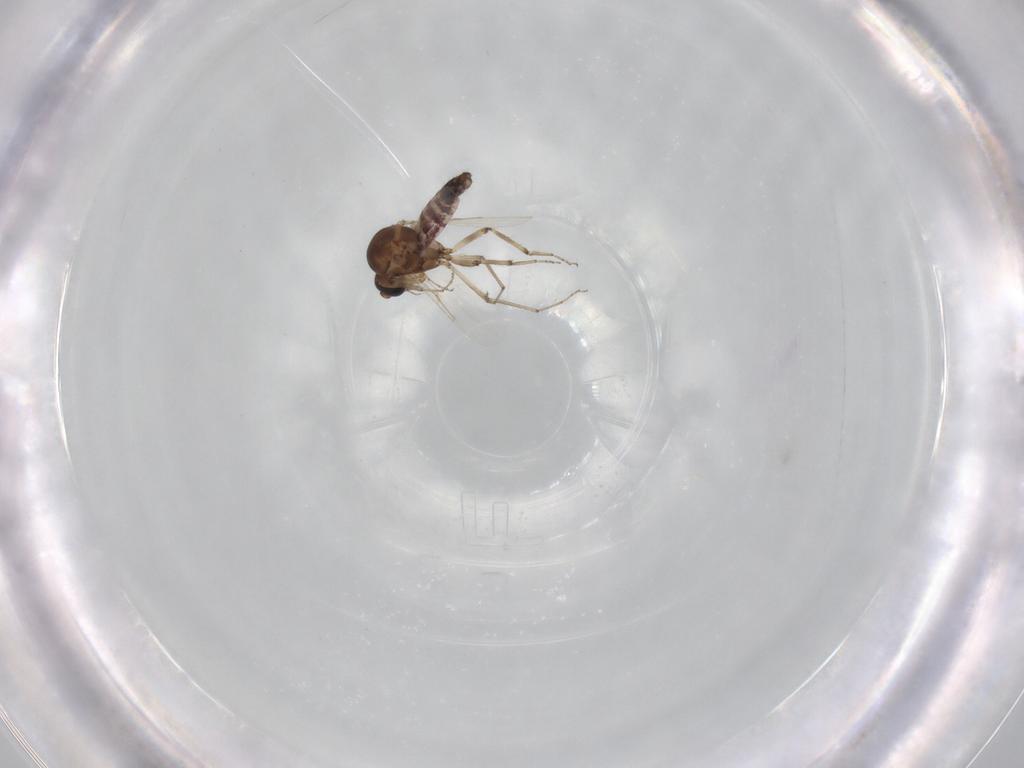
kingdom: Animalia
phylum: Arthropoda
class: Insecta
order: Diptera
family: Ceratopogonidae
